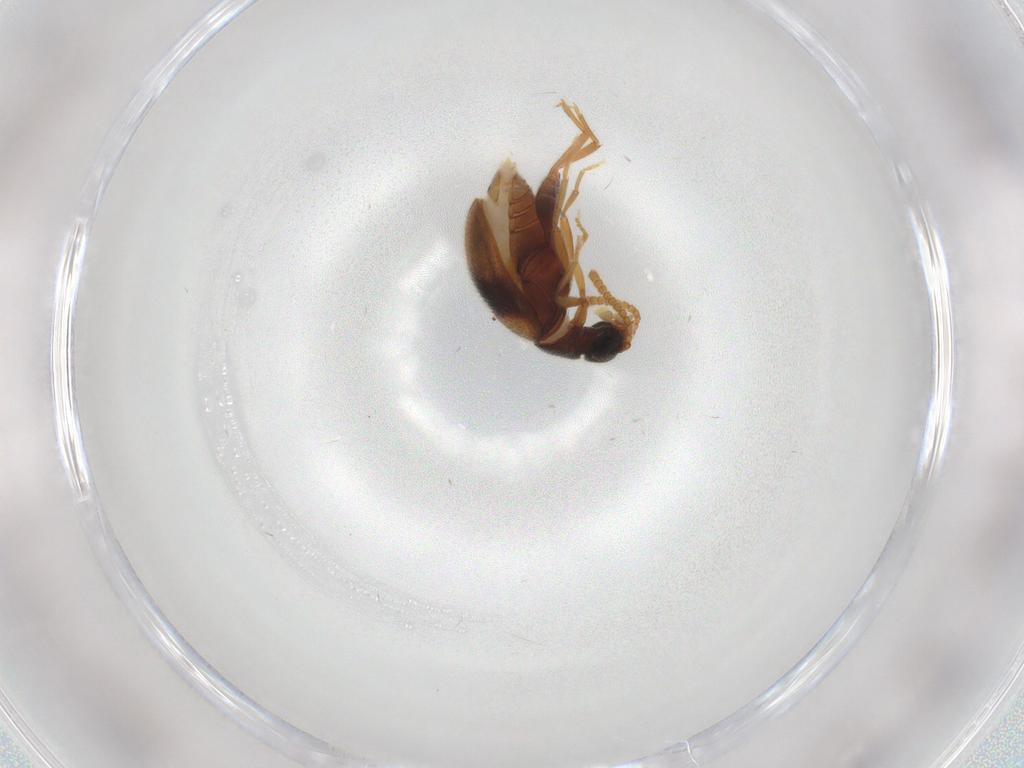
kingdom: Animalia
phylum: Arthropoda
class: Insecta
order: Coleoptera
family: Aderidae
